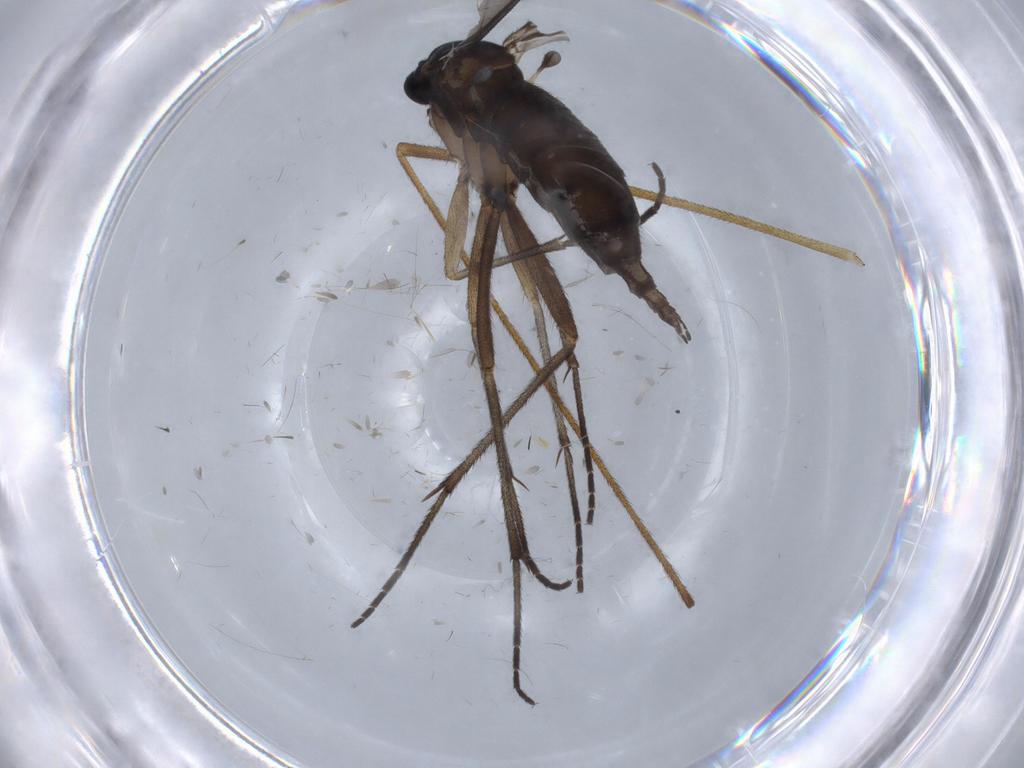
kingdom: Animalia
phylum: Arthropoda
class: Insecta
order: Diptera
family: Sciaridae
